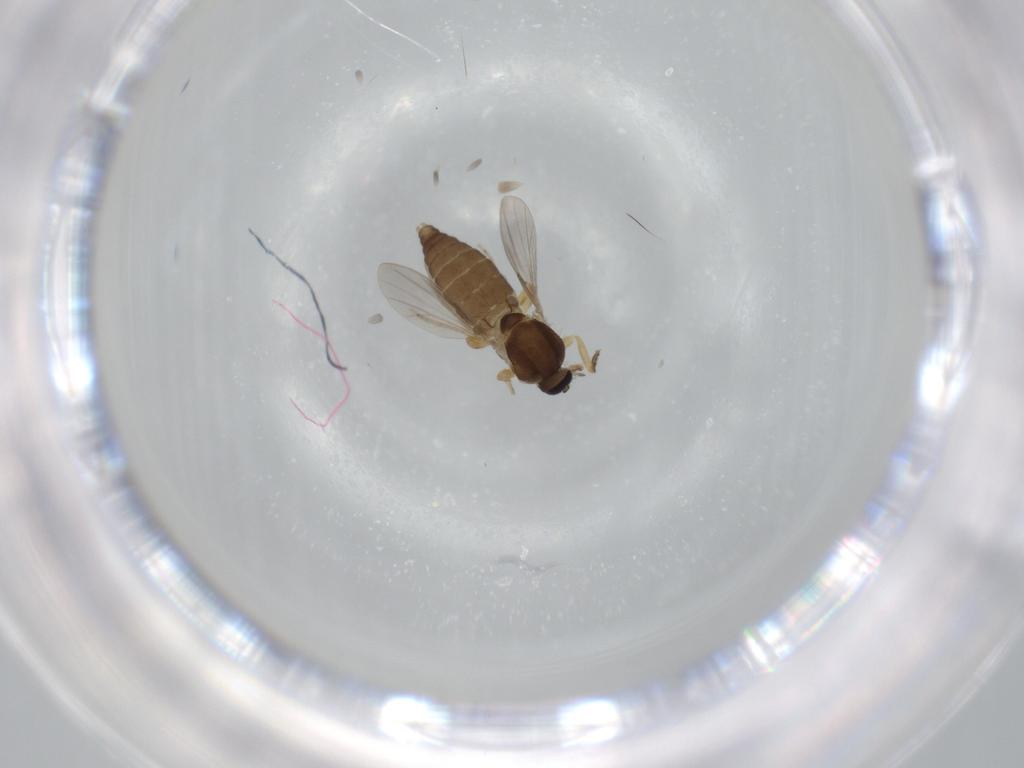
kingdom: Animalia
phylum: Arthropoda
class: Insecta
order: Diptera
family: Ceratopogonidae
